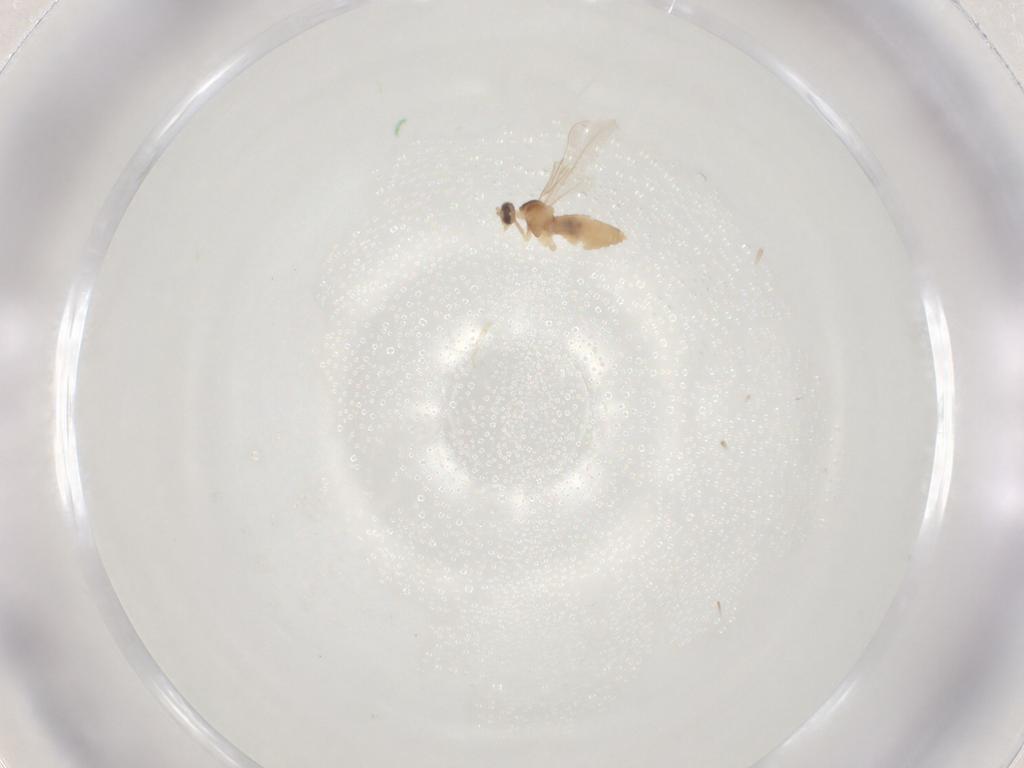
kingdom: Animalia
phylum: Arthropoda
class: Insecta
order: Diptera
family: Cecidomyiidae
